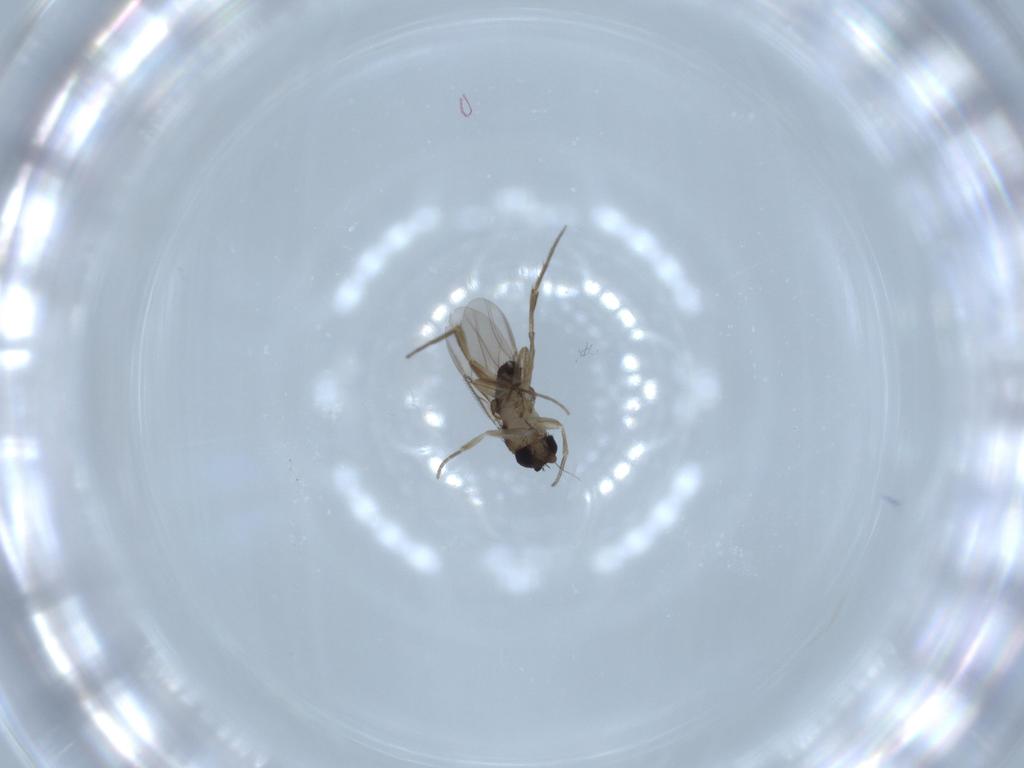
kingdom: Animalia
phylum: Arthropoda
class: Insecta
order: Diptera
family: Phoridae
